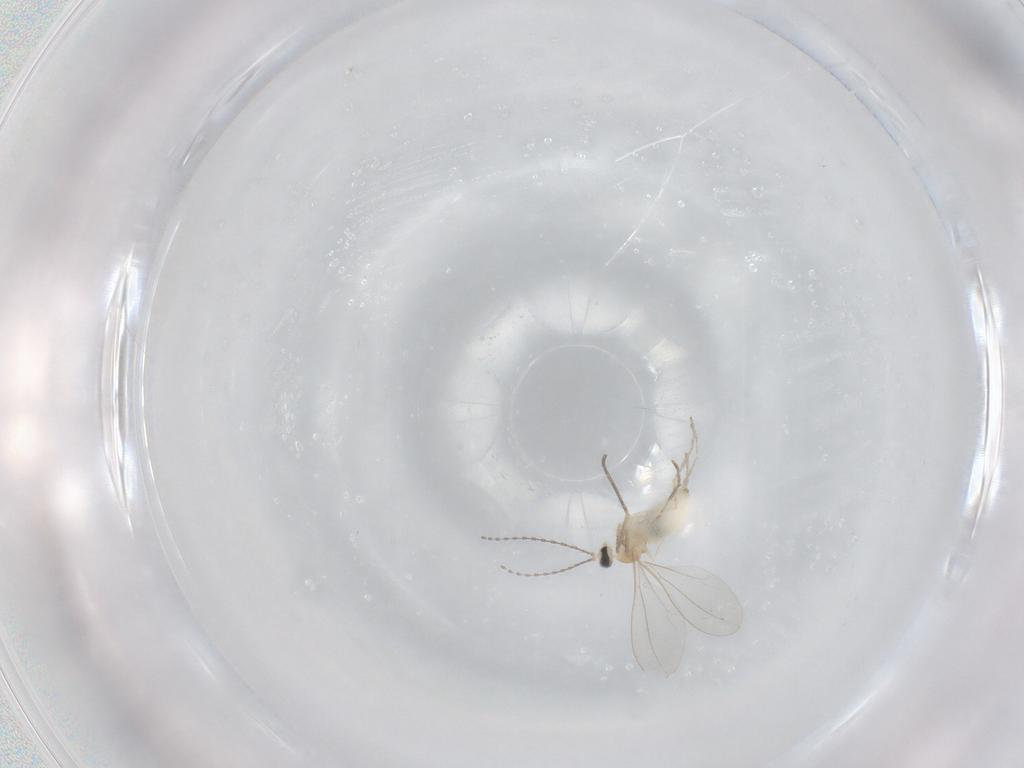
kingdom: Animalia
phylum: Arthropoda
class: Insecta
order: Diptera
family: Cecidomyiidae
